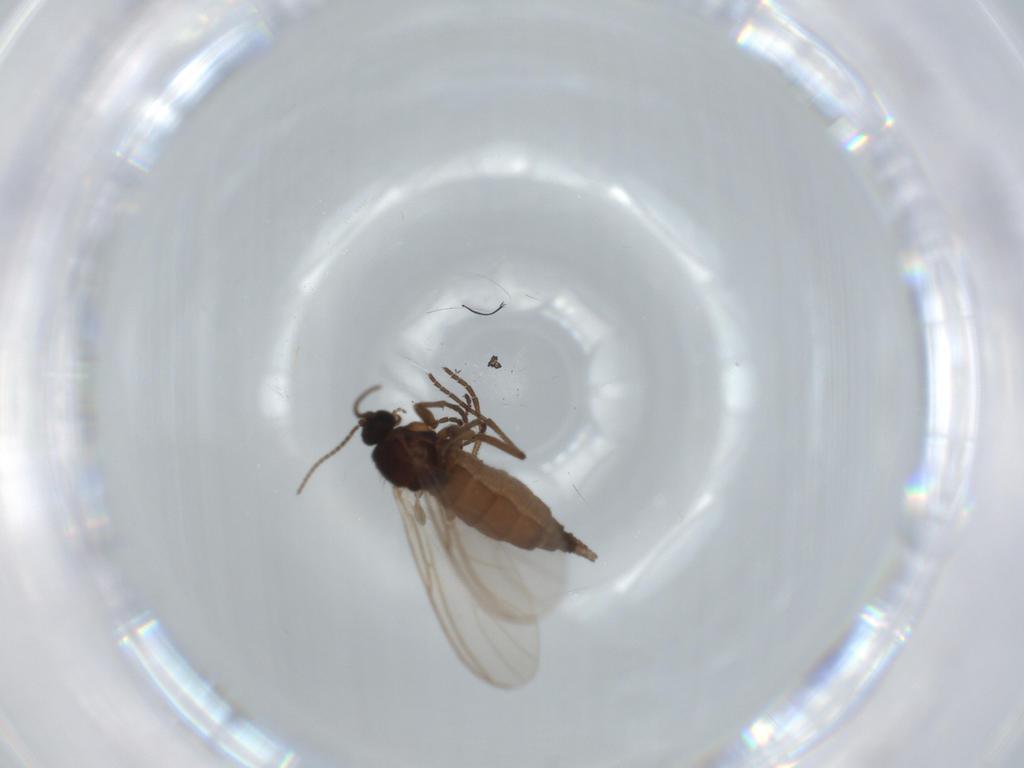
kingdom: Animalia
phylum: Arthropoda
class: Insecta
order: Diptera
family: Sciaridae
